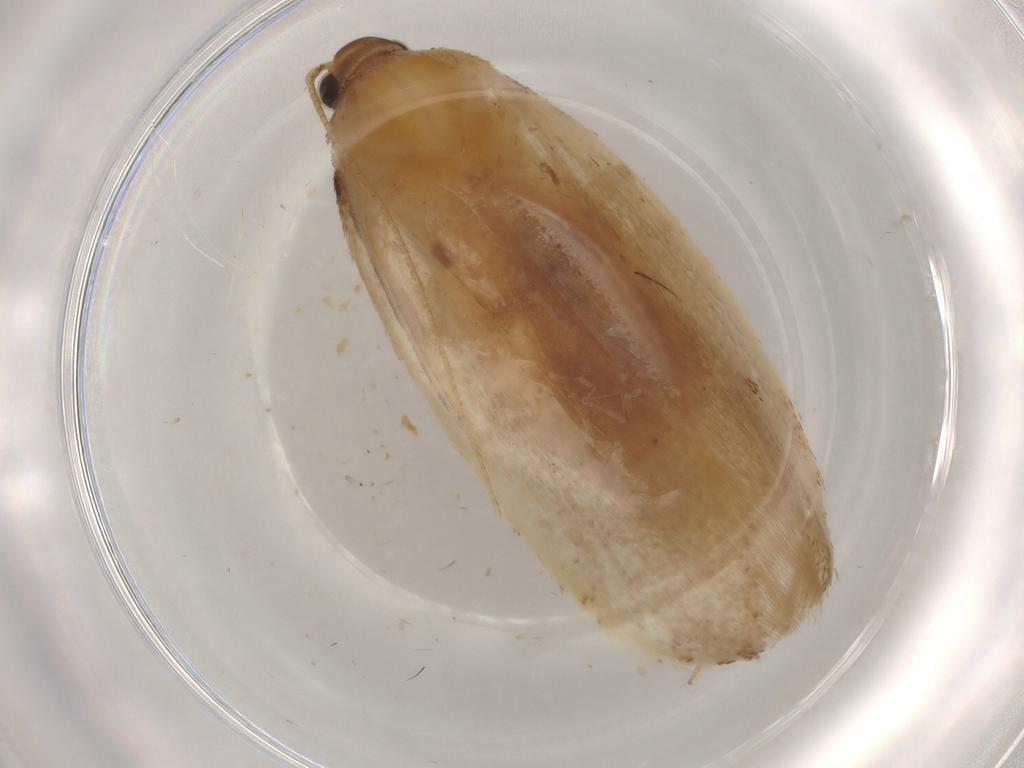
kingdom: Animalia
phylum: Arthropoda
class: Insecta
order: Lepidoptera
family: Autostichidae
